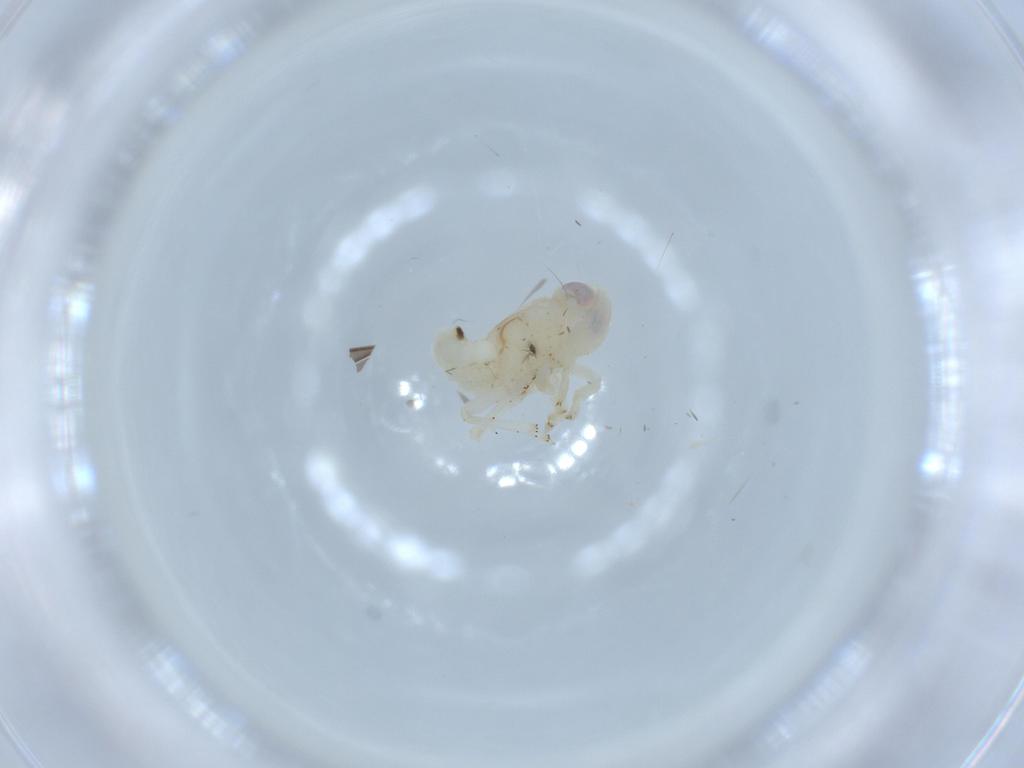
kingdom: Animalia
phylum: Arthropoda
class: Insecta
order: Hemiptera
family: Nogodinidae
